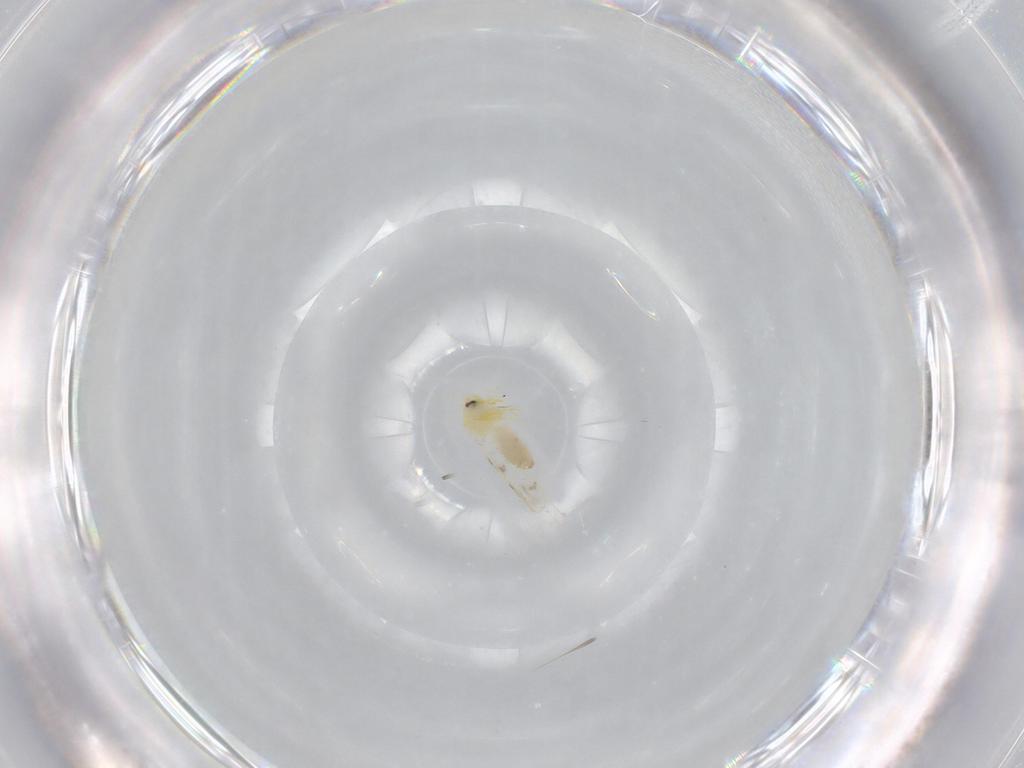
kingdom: Animalia
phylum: Arthropoda
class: Insecta
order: Hemiptera
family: Aleyrodidae
